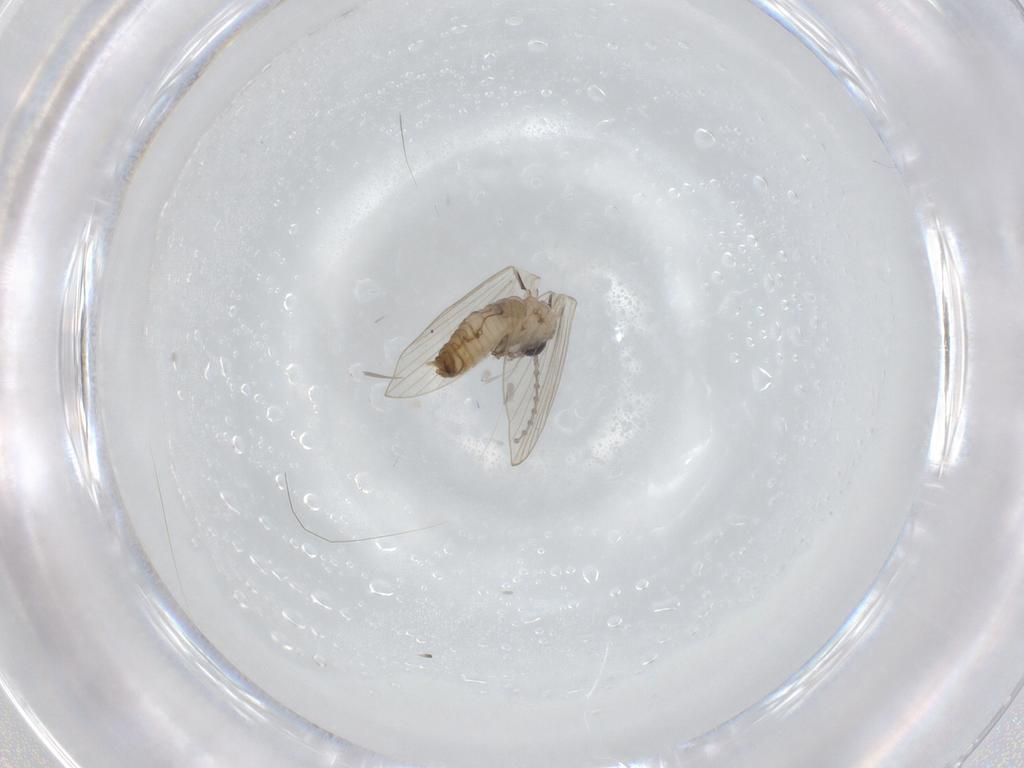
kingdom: Animalia
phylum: Arthropoda
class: Insecta
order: Diptera
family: Psychodidae
